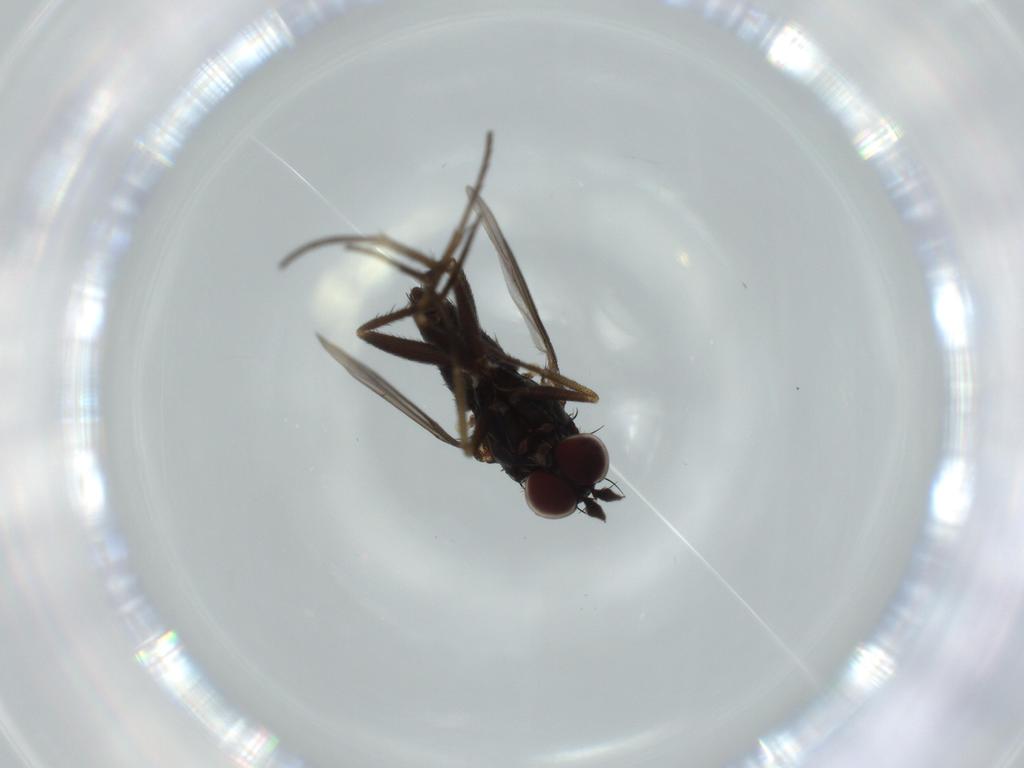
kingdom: Animalia
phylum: Arthropoda
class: Insecta
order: Diptera
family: Dolichopodidae
